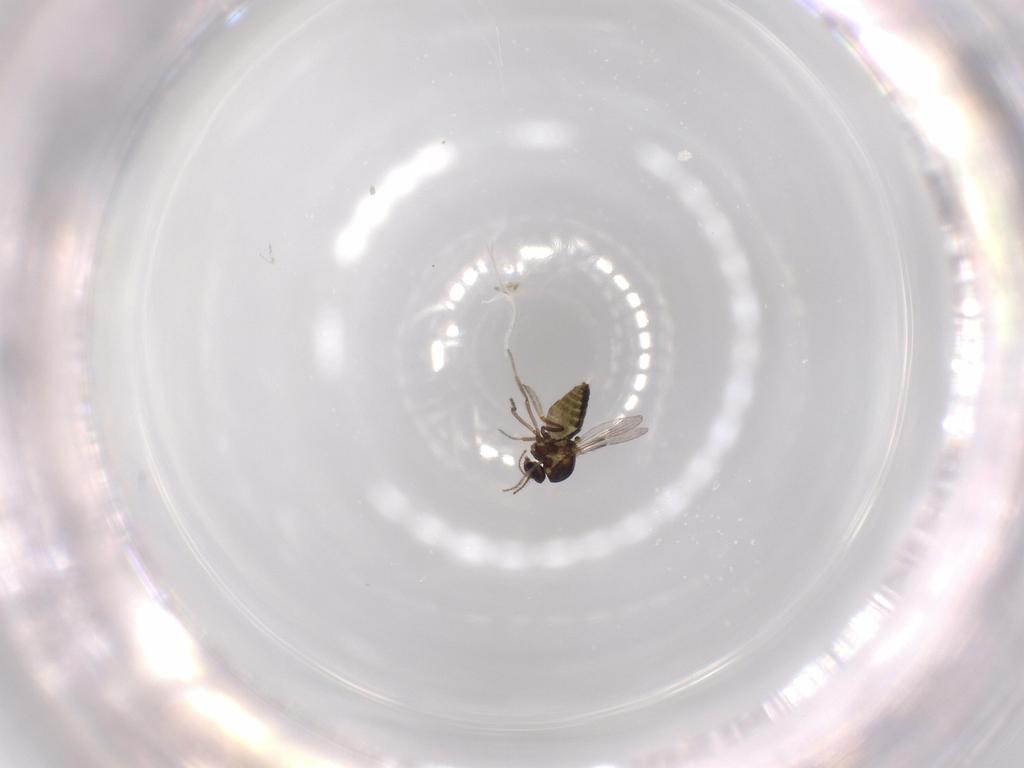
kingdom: Animalia
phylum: Arthropoda
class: Insecta
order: Diptera
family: Ceratopogonidae
